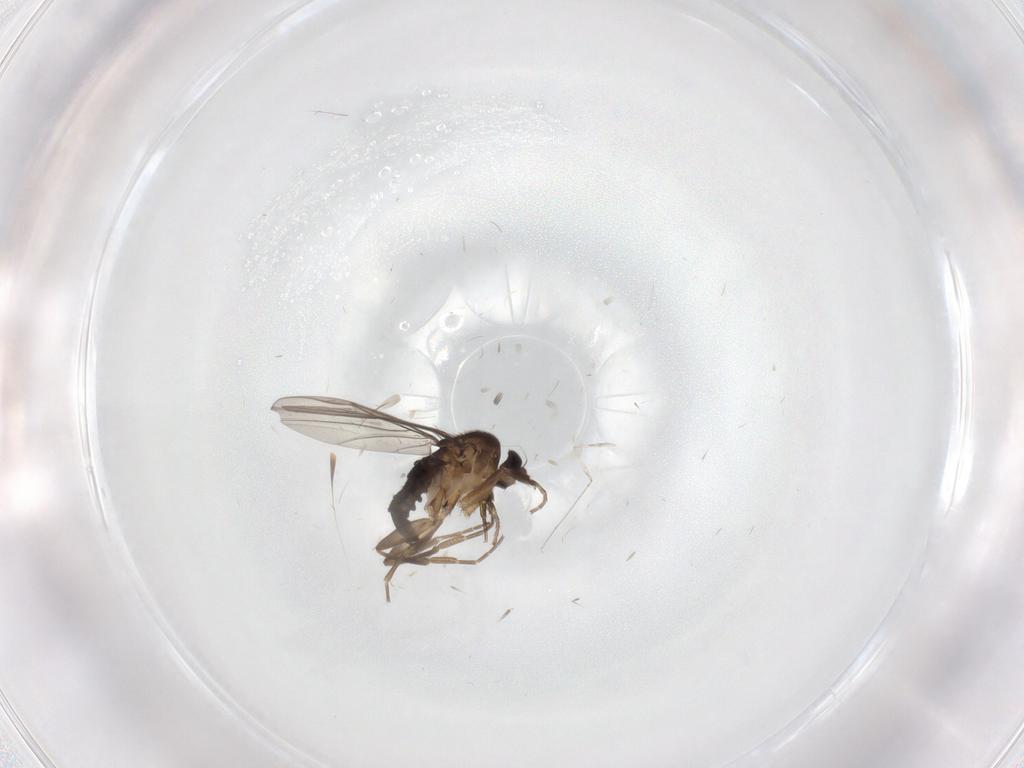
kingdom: Animalia
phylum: Arthropoda
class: Insecta
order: Diptera
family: Phoridae
